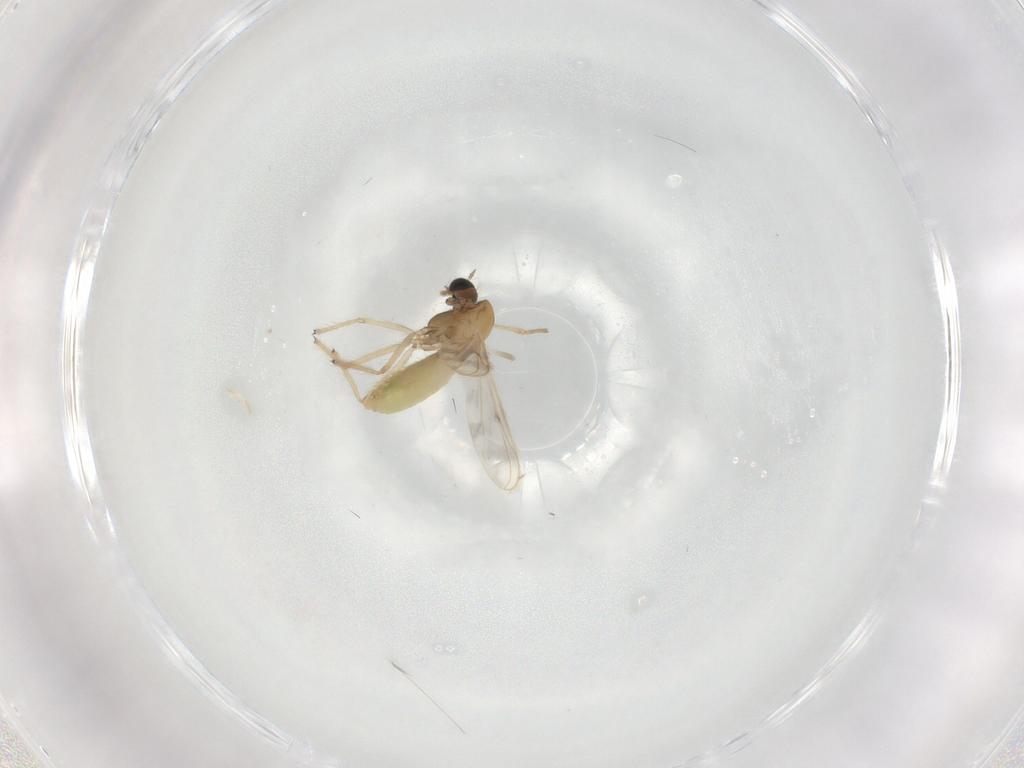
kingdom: Animalia
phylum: Arthropoda
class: Insecta
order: Diptera
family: Chironomidae
